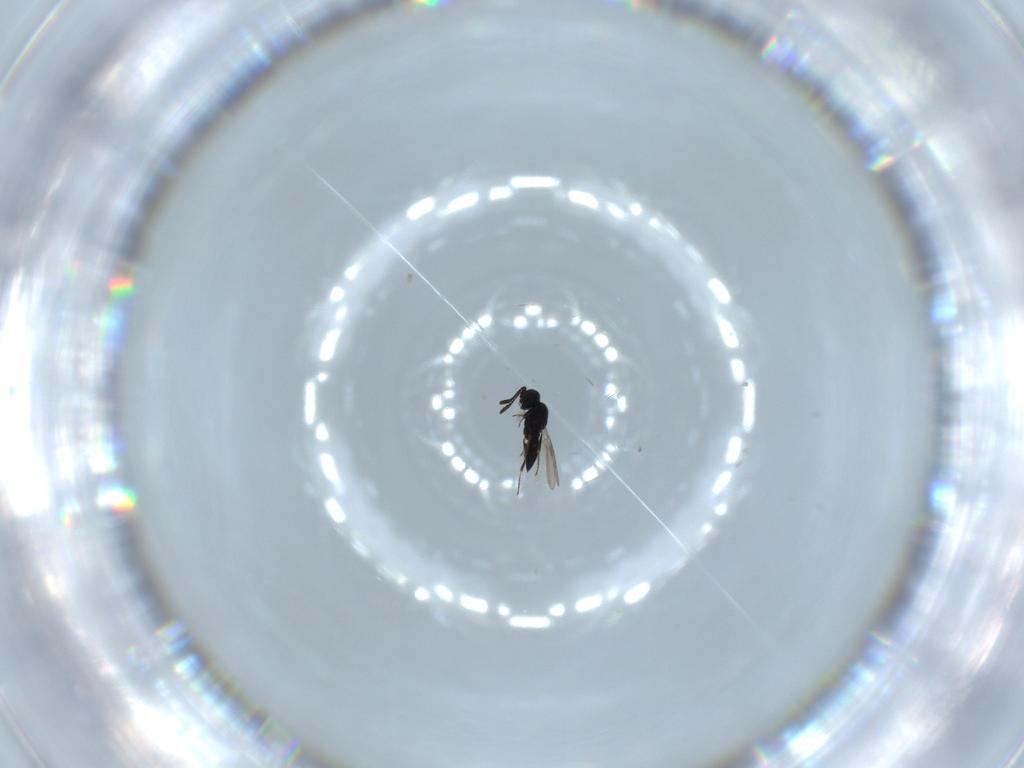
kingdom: Animalia
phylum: Arthropoda
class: Insecta
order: Hymenoptera
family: Scelionidae
